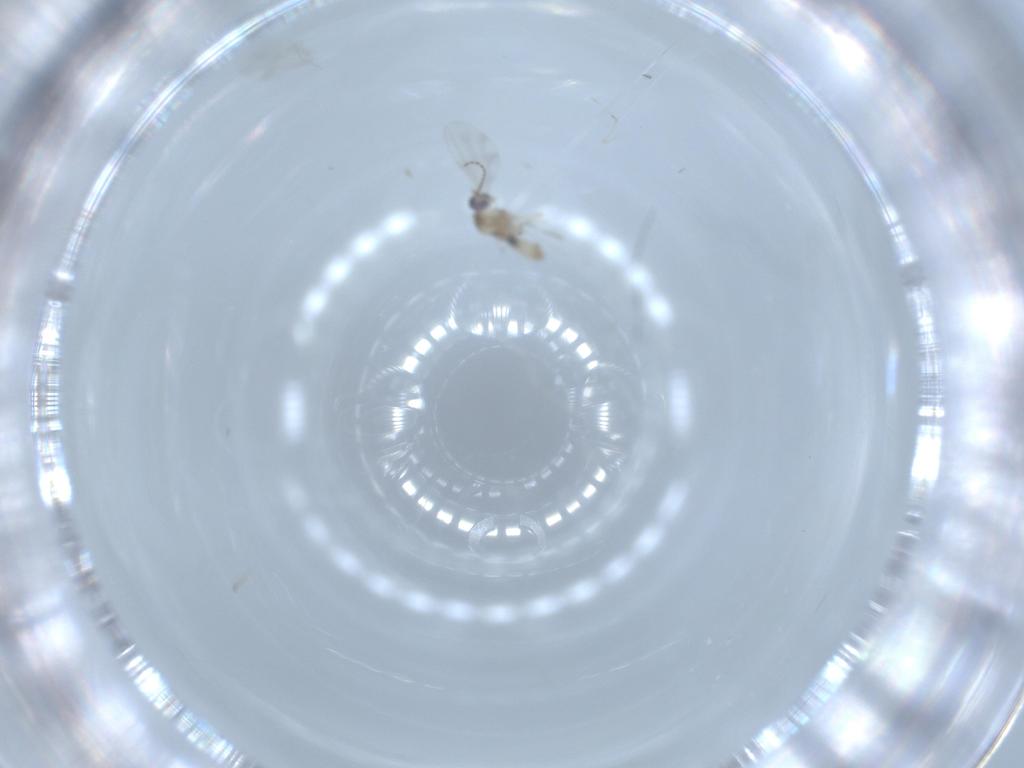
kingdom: Animalia
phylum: Arthropoda
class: Insecta
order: Diptera
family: Cecidomyiidae
